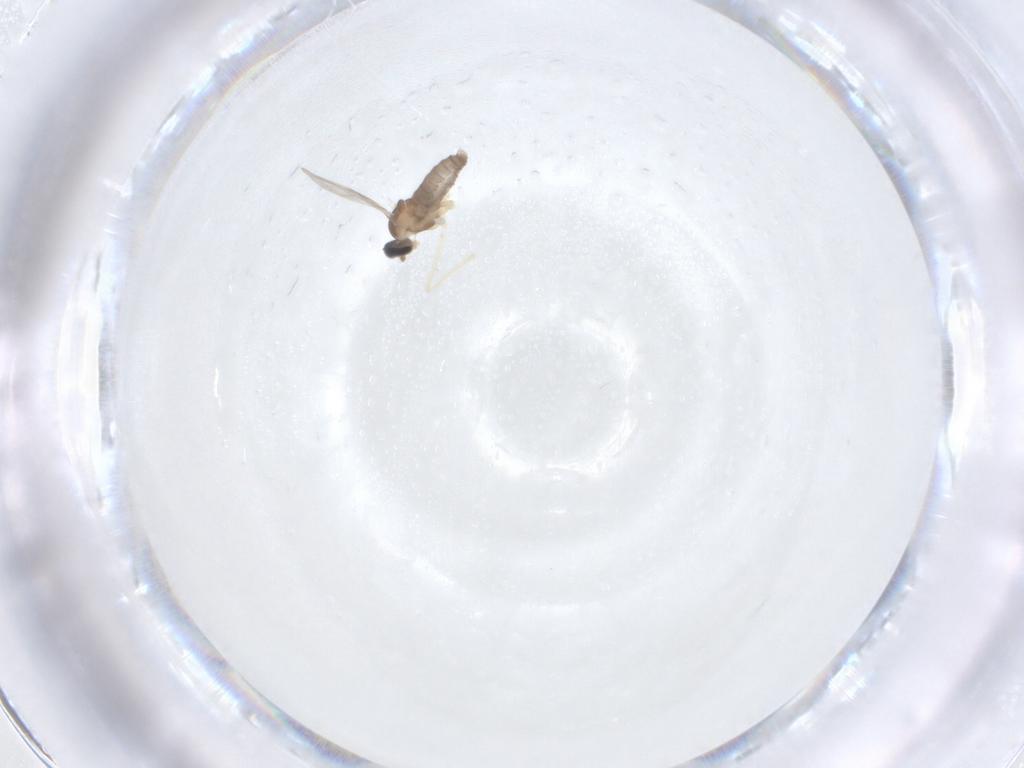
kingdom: Animalia
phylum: Arthropoda
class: Insecta
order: Diptera
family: Cecidomyiidae
